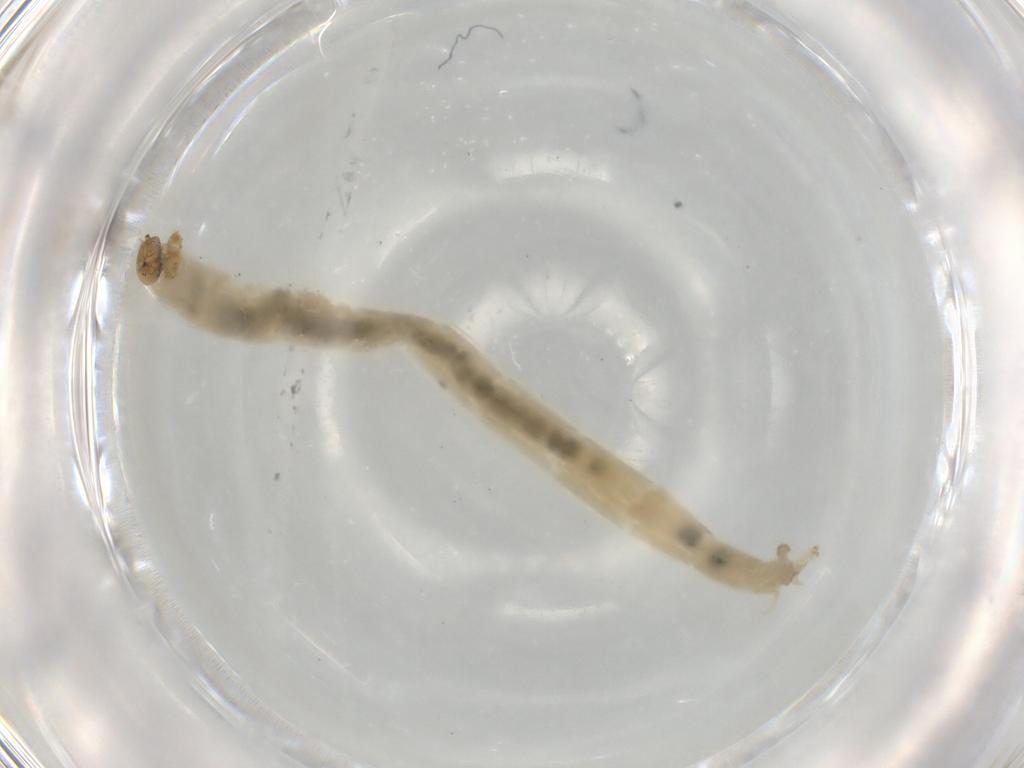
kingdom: Animalia
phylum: Arthropoda
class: Insecta
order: Diptera
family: Chironomidae
